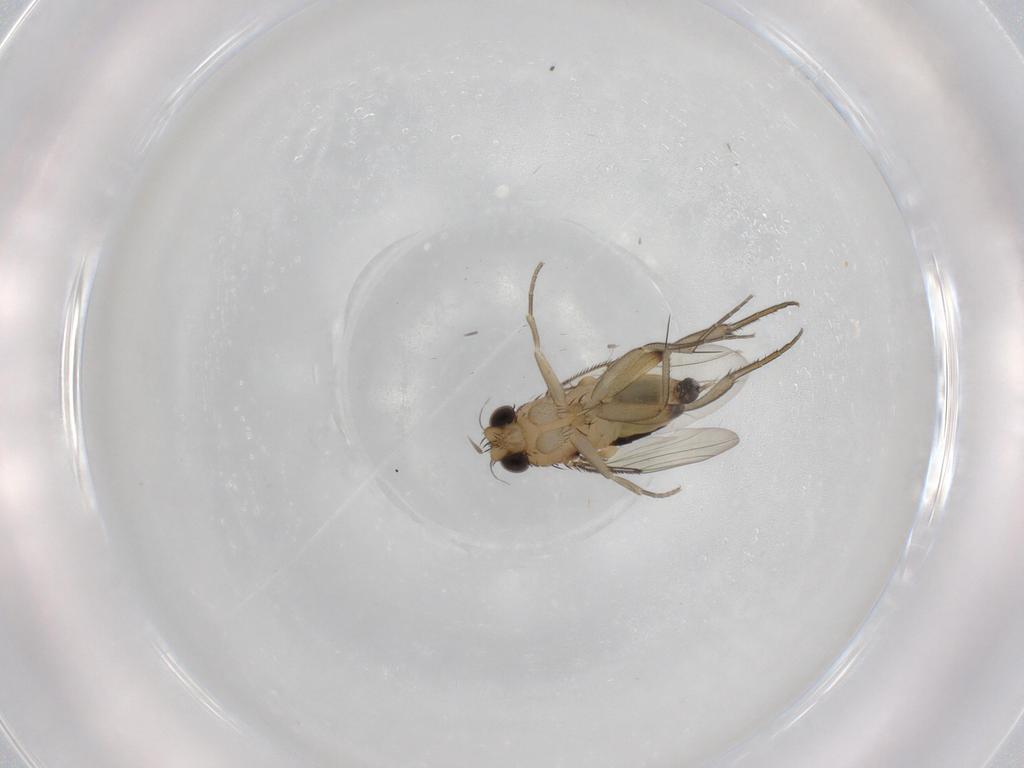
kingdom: Animalia
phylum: Arthropoda
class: Insecta
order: Diptera
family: Phoridae
